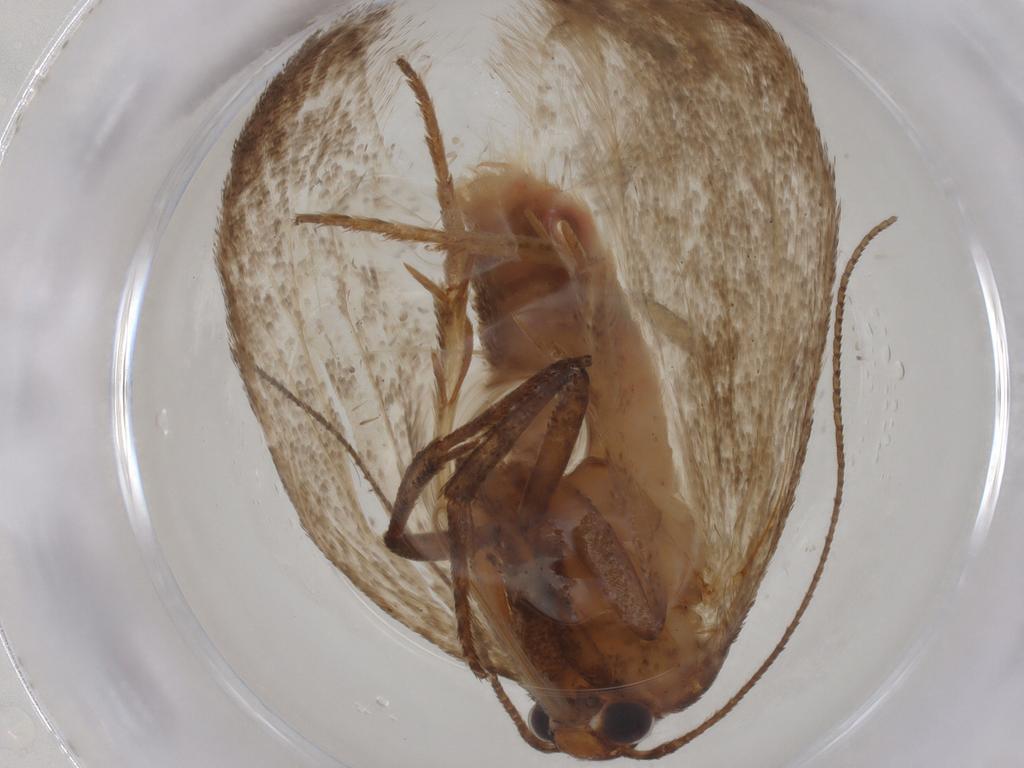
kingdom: Animalia
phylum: Arthropoda
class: Insecta
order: Lepidoptera
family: Cosmopterigidae
